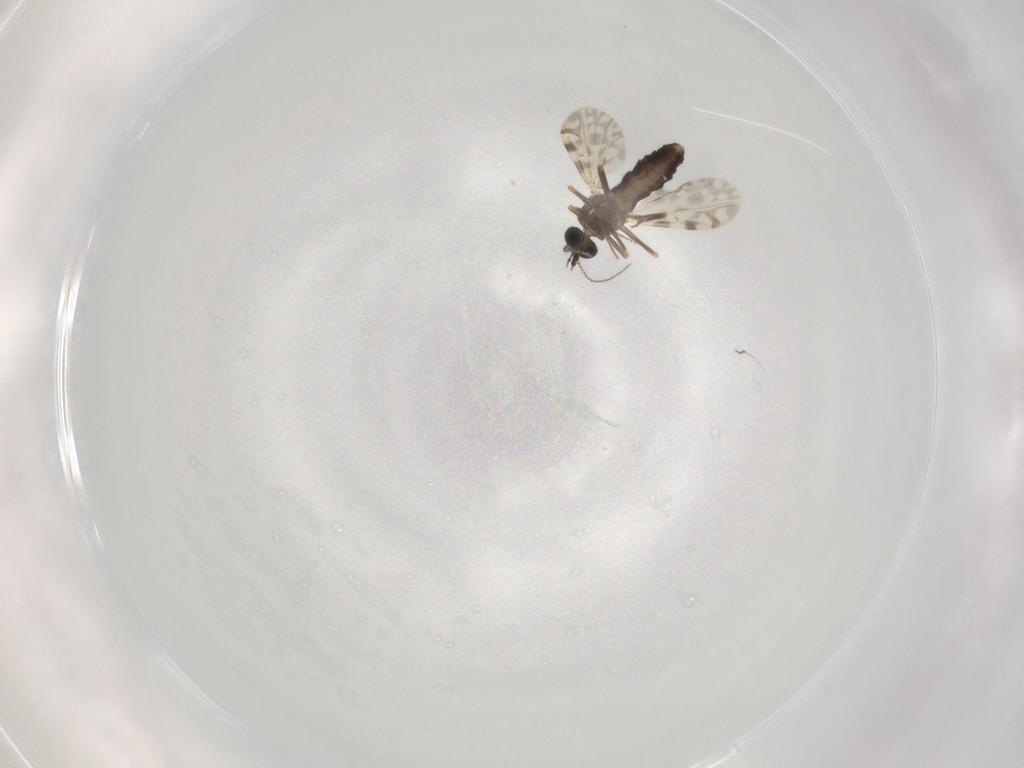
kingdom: Animalia
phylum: Arthropoda
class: Insecta
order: Diptera
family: Ceratopogonidae
